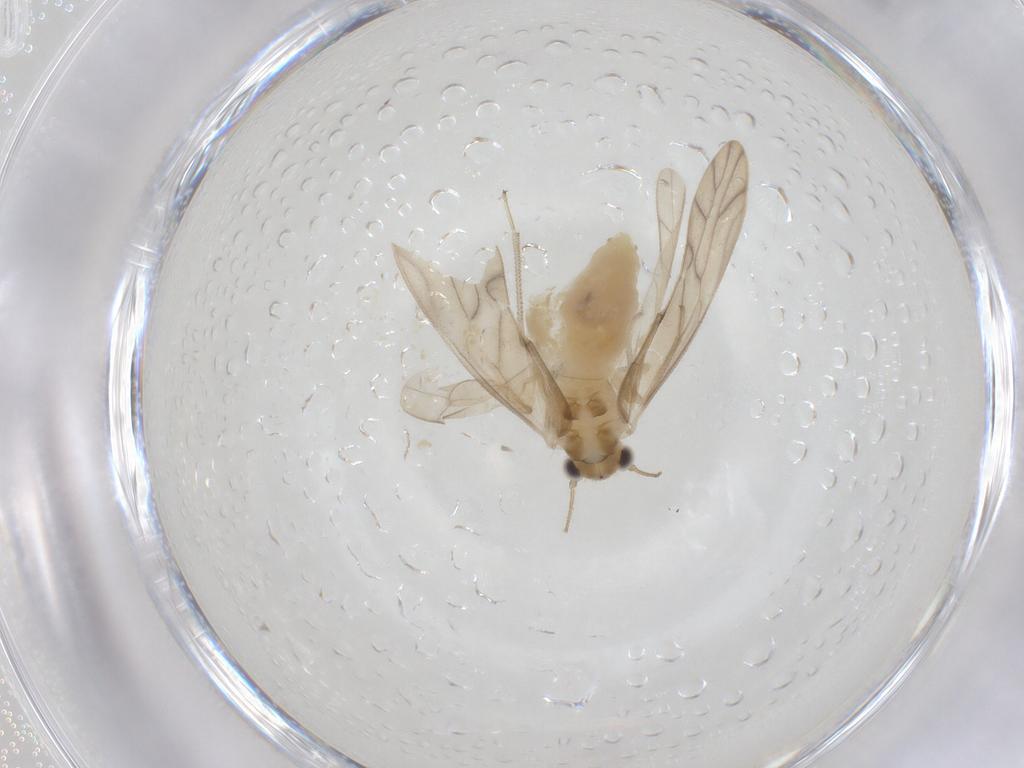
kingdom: Animalia
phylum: Arthropoda
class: Insecta
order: Psocodea
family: Caeciliusidae
